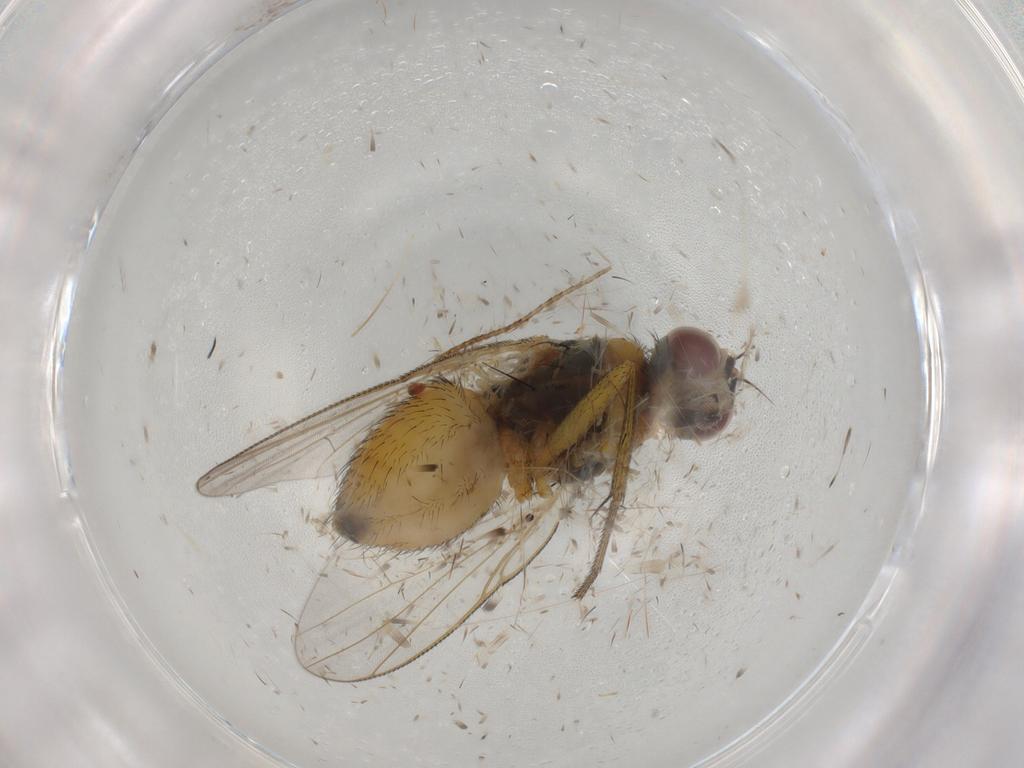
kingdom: Animalia
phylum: Arthropoda
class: Insecta
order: Diptera
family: Muscidae
